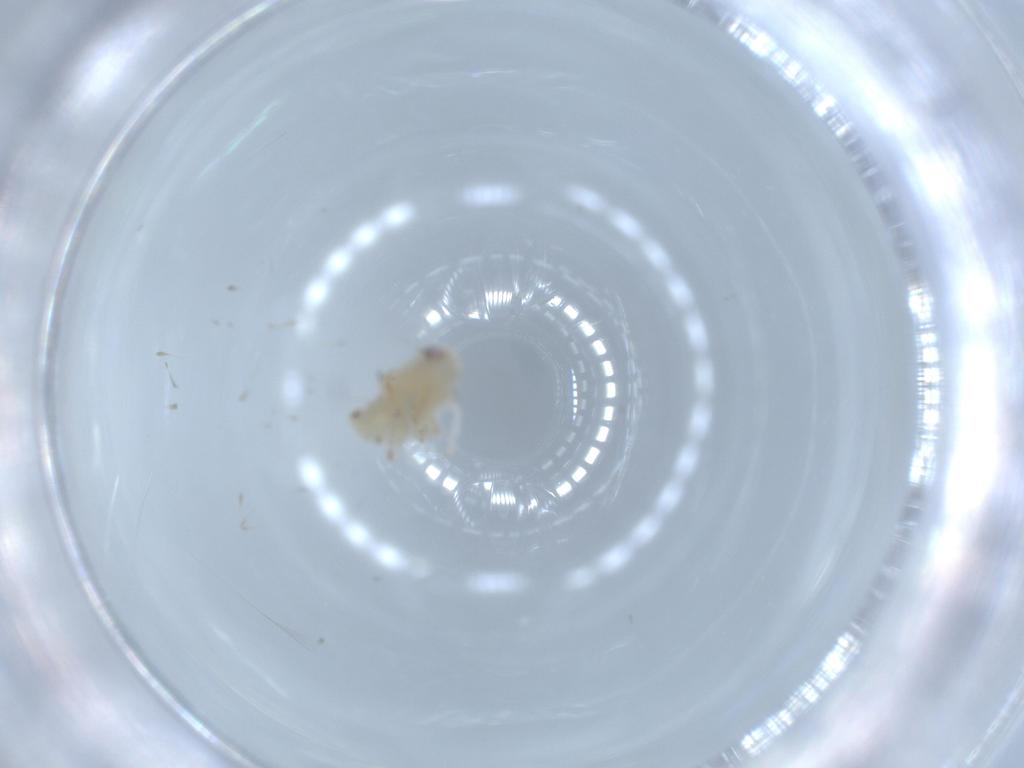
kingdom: Animalia
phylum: Arthropoda
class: Insecta
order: Hemiptera
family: Nogodinidae
